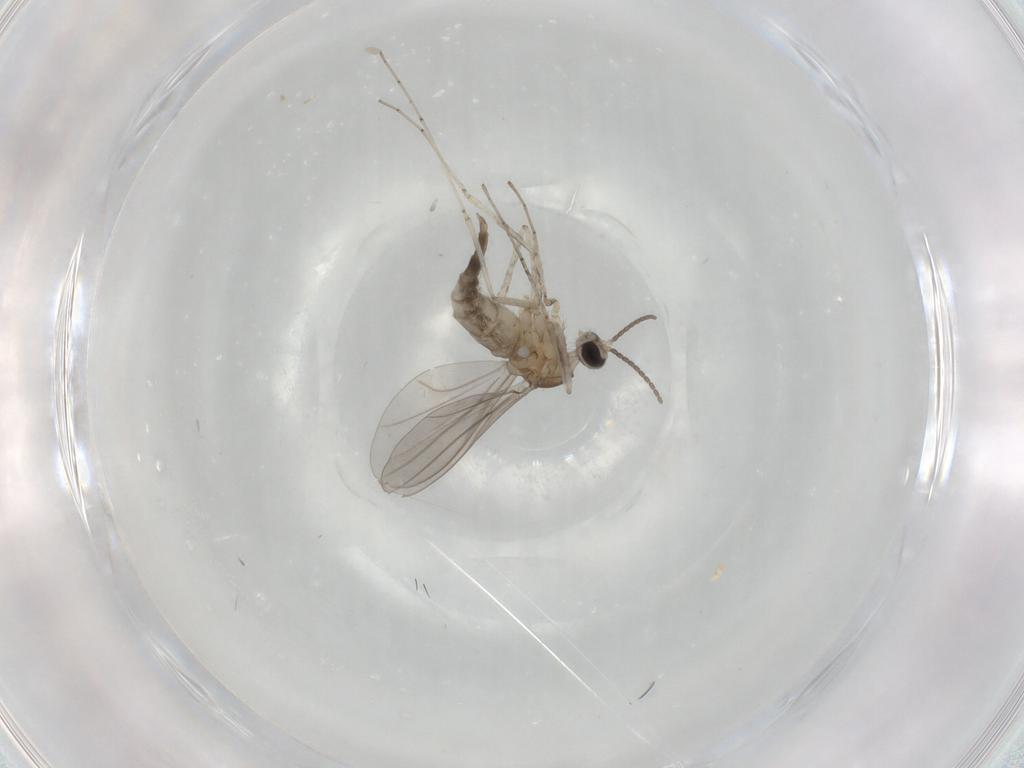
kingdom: Animalia
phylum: Arthropoda
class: Insecta
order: Diptera
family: Cecidomyiidae
